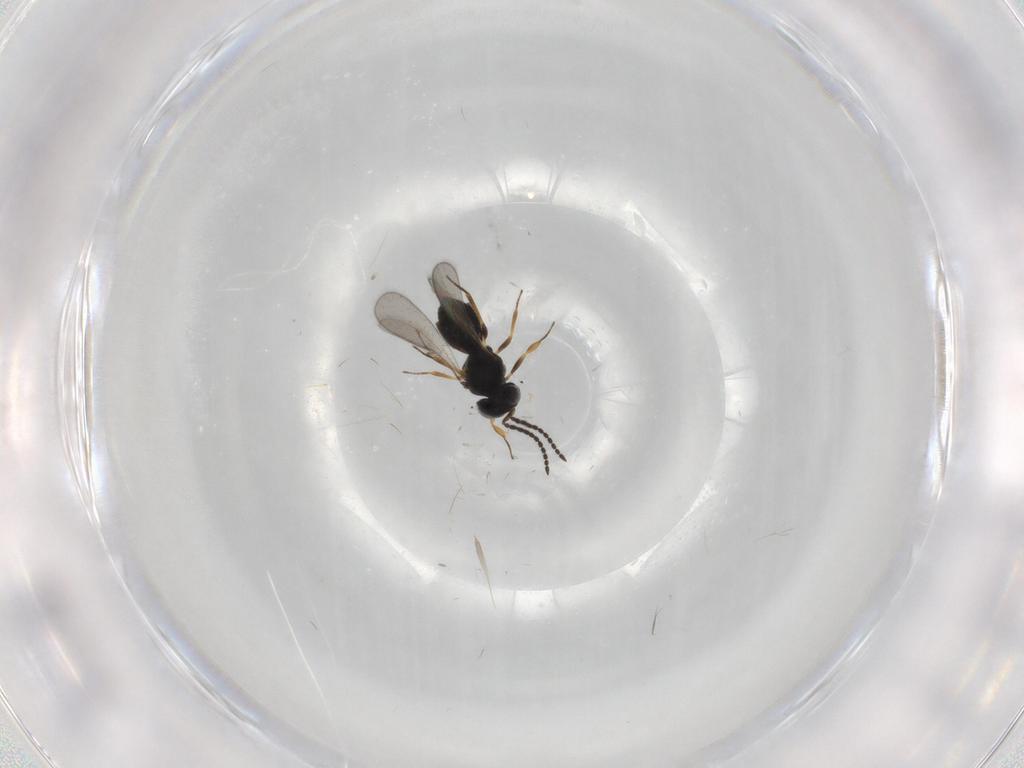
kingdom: Animalia
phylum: Arthropoda
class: Insecta
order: Hymenoptera
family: Scelionidae
